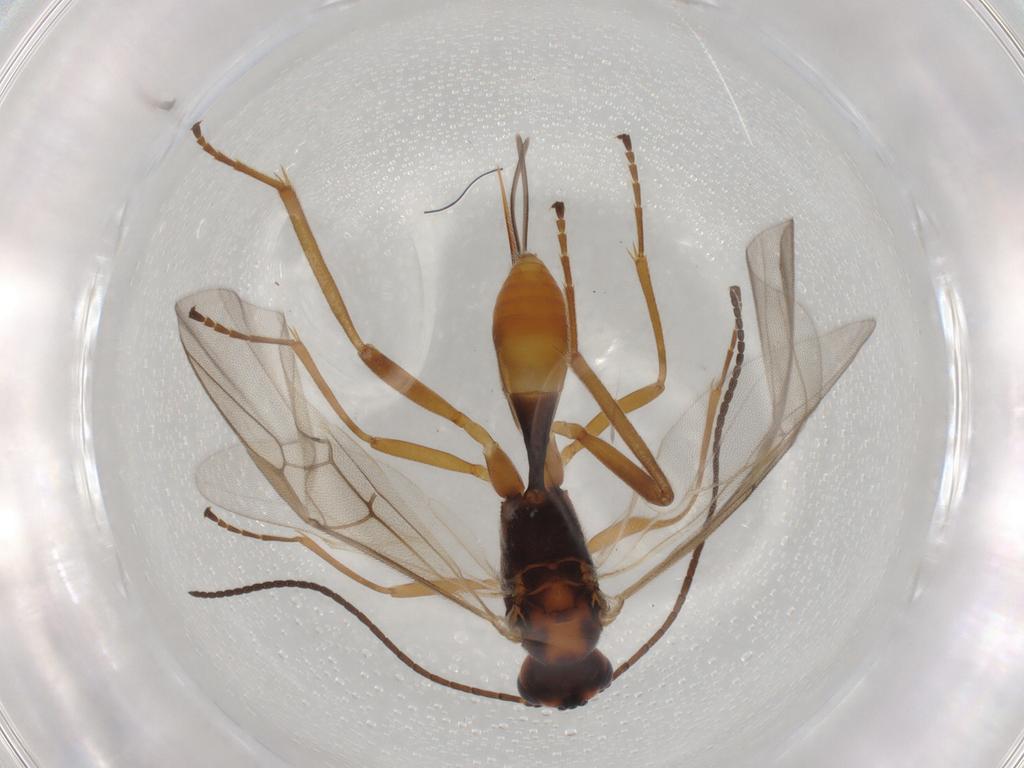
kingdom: Animalia
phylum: Arthropoda
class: Insecta
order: Hymenoptera
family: Braconidae
